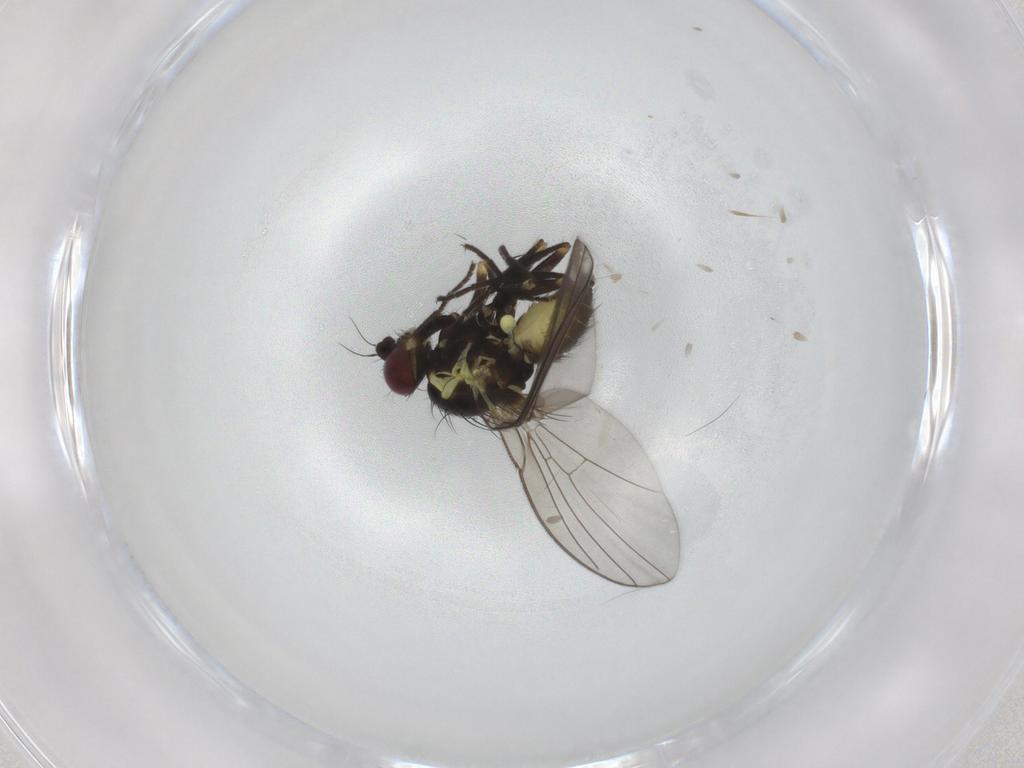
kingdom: Animalia
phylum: Arthropoda
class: Insecta
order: Diptera
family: Agromyzidae
